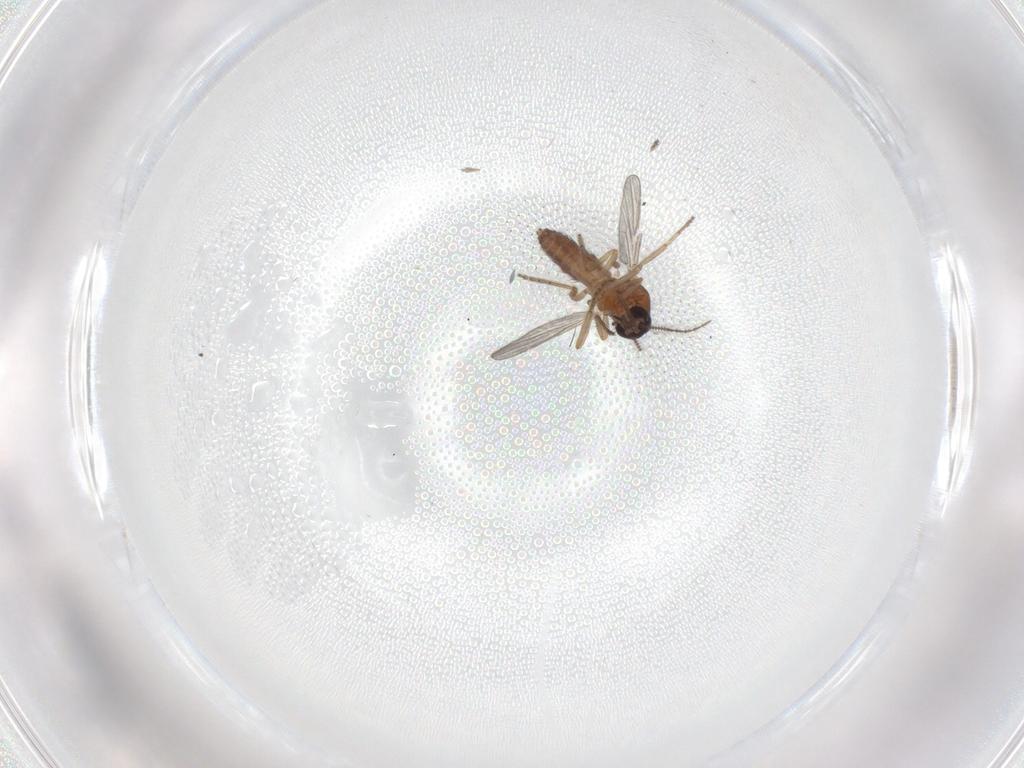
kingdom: Animalia
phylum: Arthropoda
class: Insecta
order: Diptera
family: Ceratopogonidae
